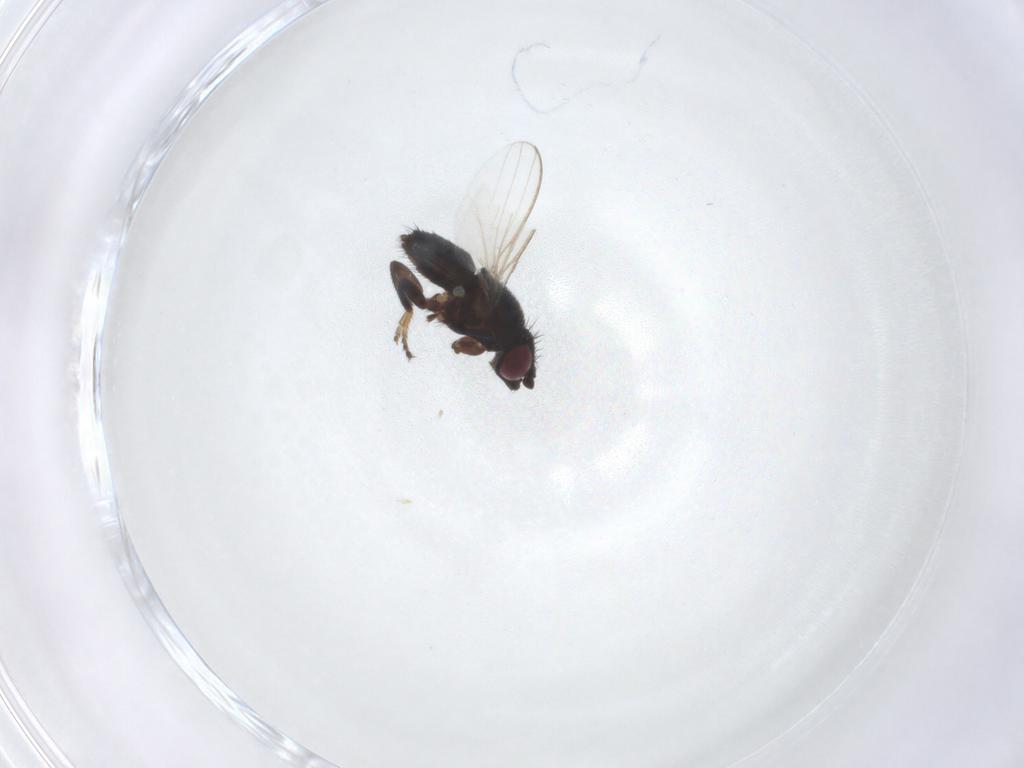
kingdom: Animalia
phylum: Arthropoda
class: Insecta
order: Diptera
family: Milichiidae
